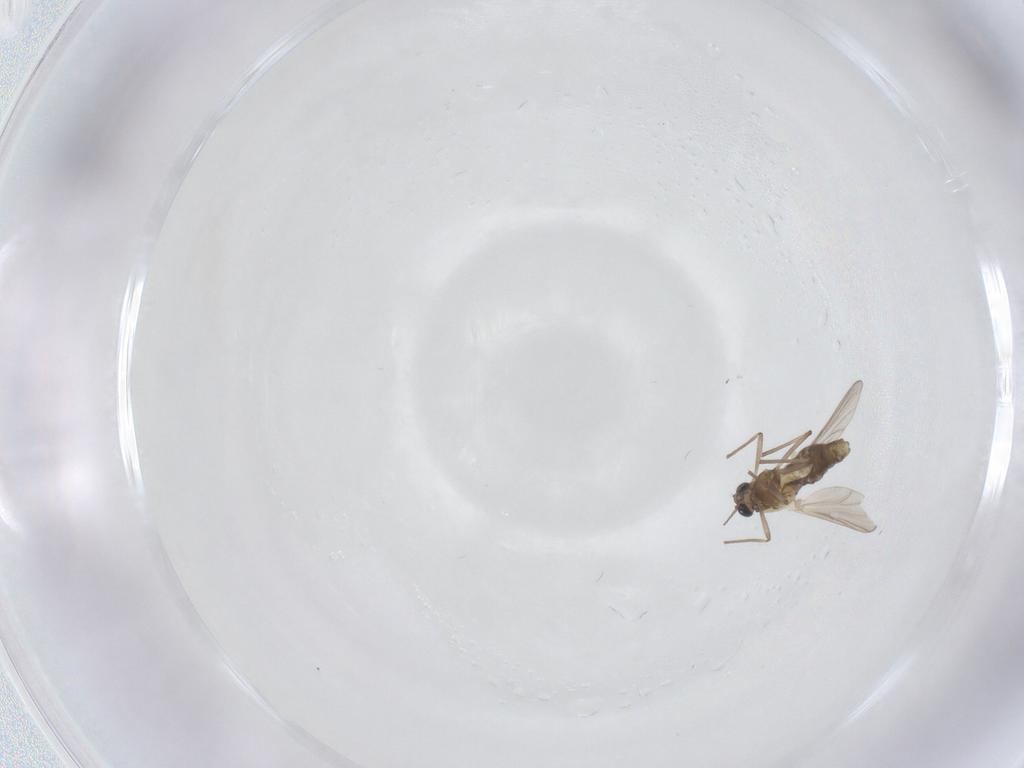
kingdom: Animalia
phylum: Arthropoda
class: Insecta
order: Diptera
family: Chironomidae
